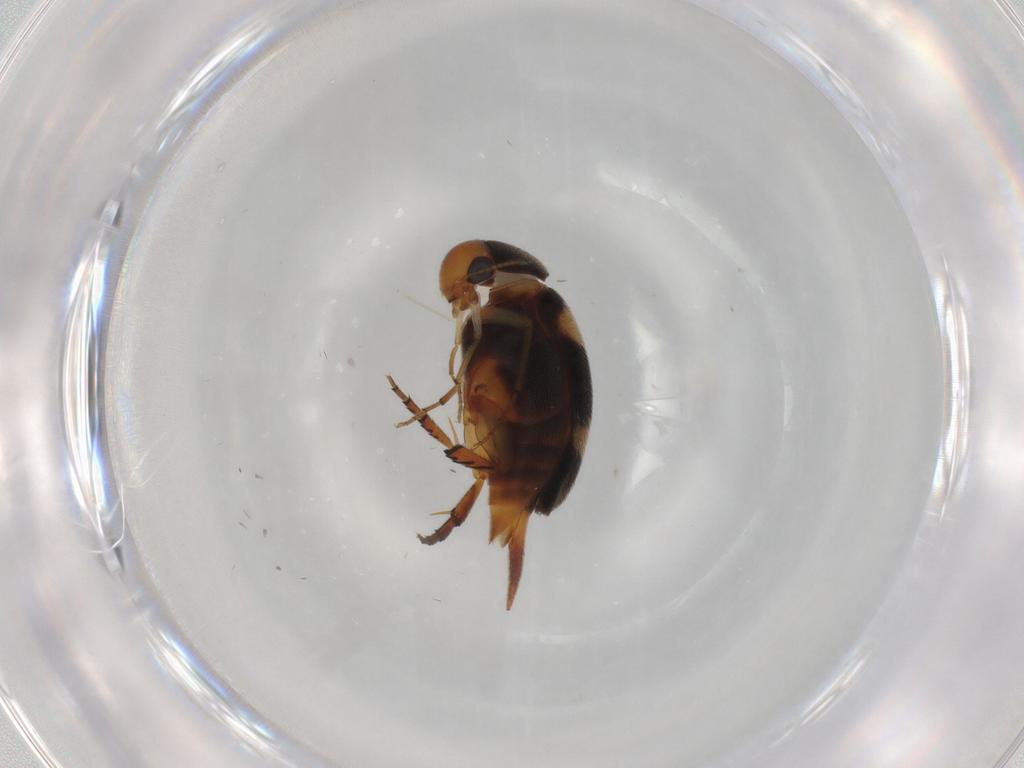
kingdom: Animalia
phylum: Arthropoda
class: Insecta
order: Coleoptera
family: Mordellidae
